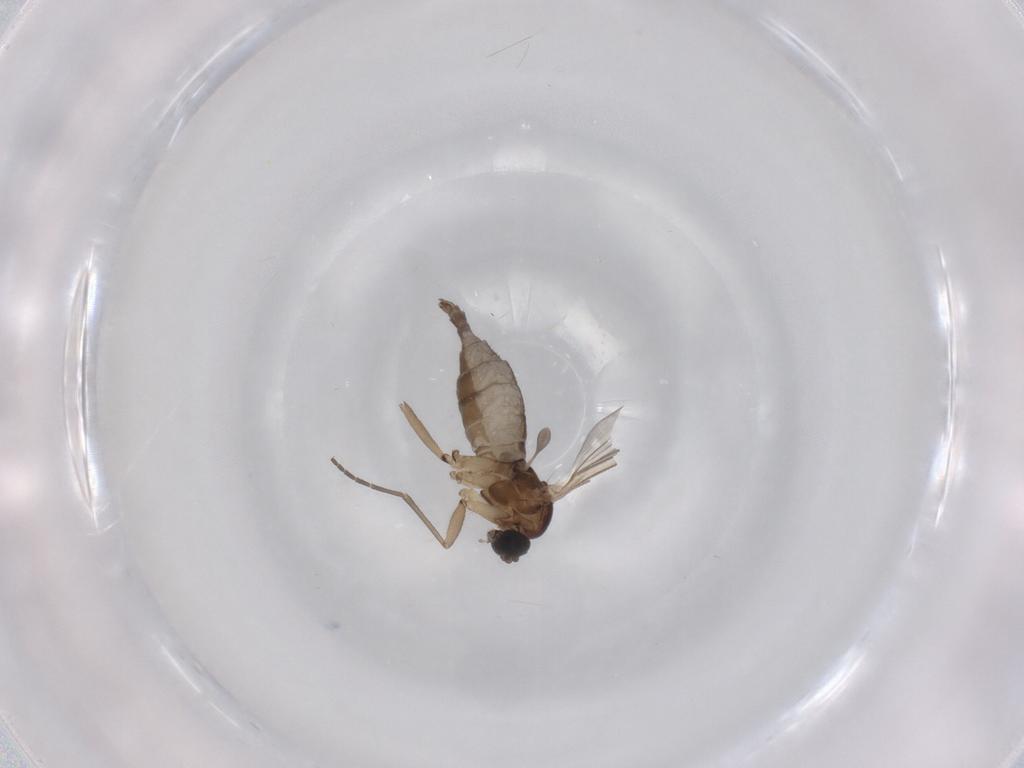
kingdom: Animalia
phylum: Arthropoda
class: Insecta
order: Diptera
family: Sciaridae
